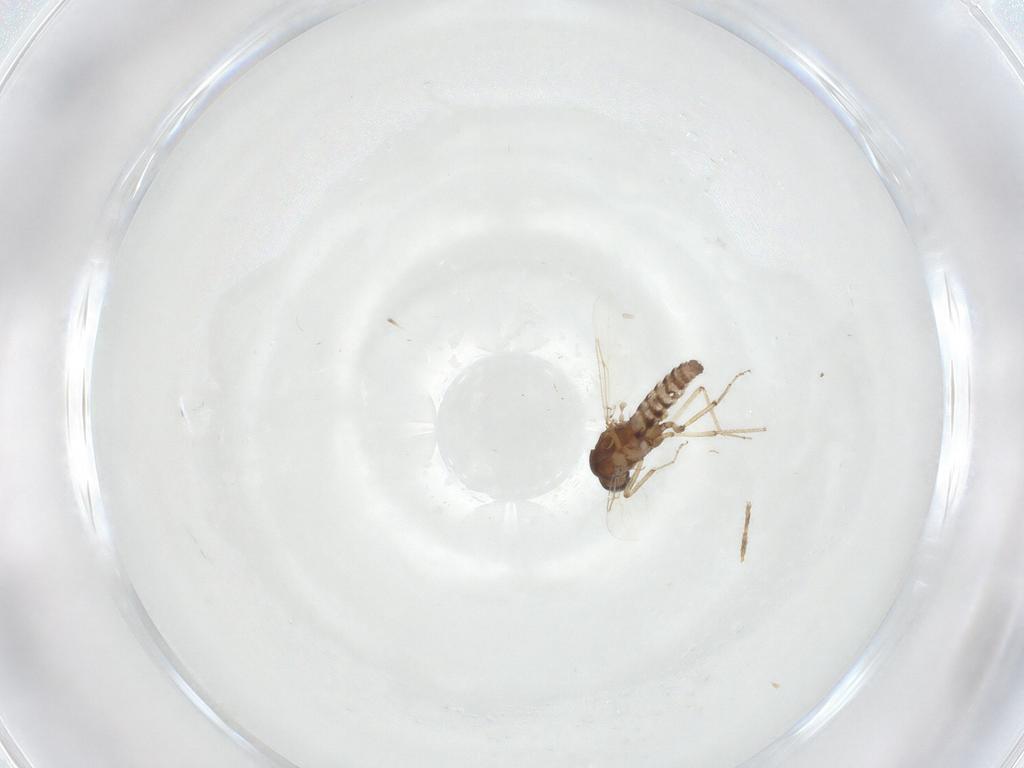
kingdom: Animalia
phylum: Arthropoda
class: Insecta
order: Diptera
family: Ceratopogonidae
